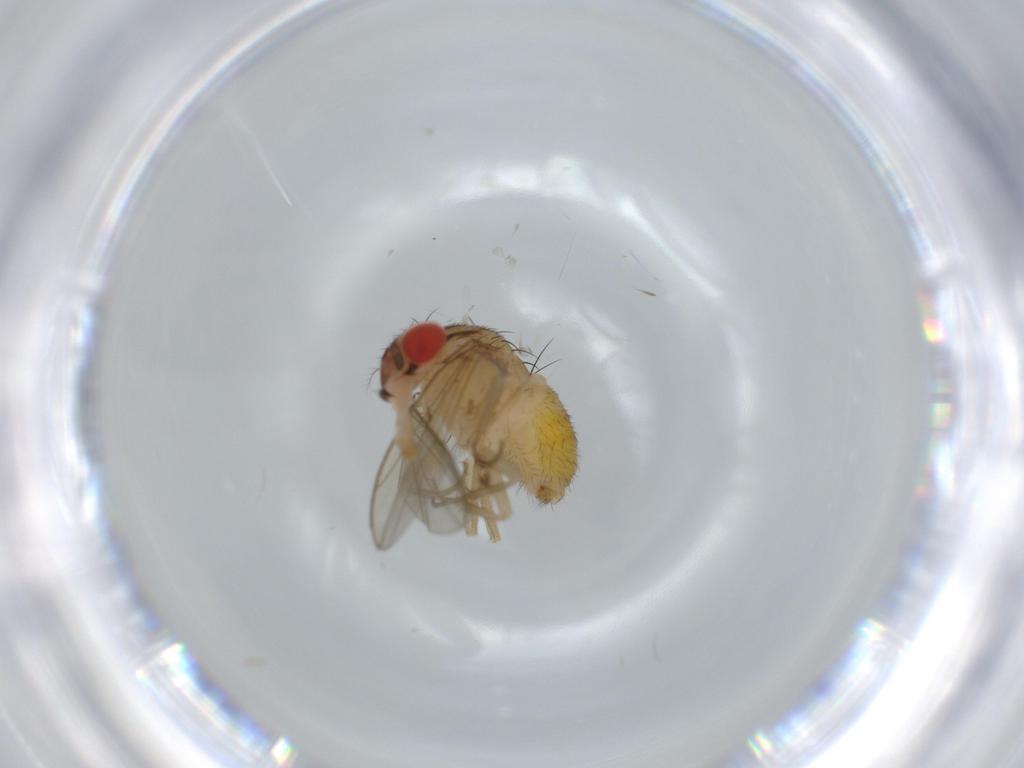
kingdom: Animalia
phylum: Arthropoda
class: Insecta
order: Diptera
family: Drosophilidae
